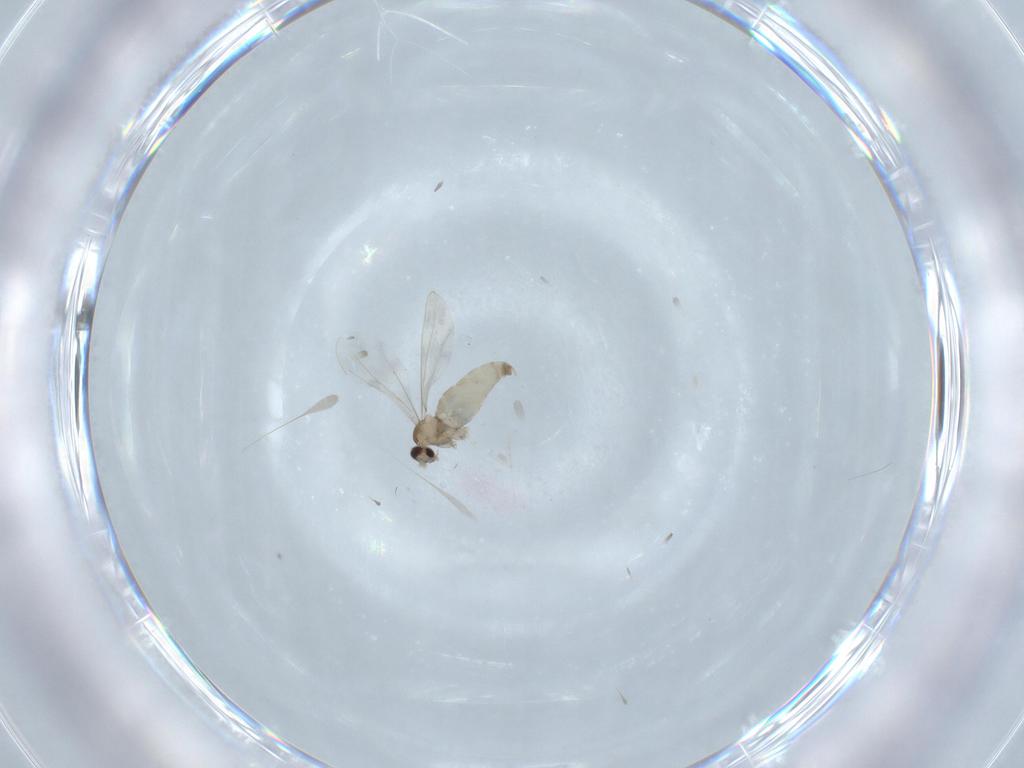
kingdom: Animalia
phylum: Arthropoda
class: Insecta
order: Diptera
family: Cecidomyiidae
